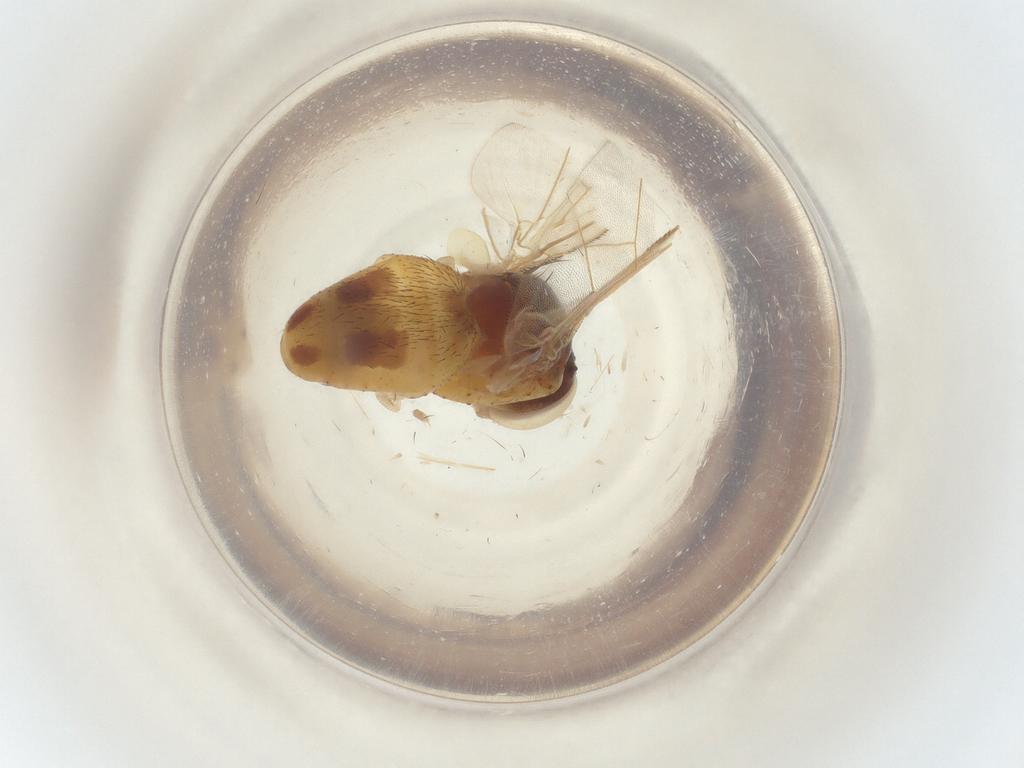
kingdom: Animalia
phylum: Arthropoda
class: Insecta
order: Diptera
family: Muscidae
